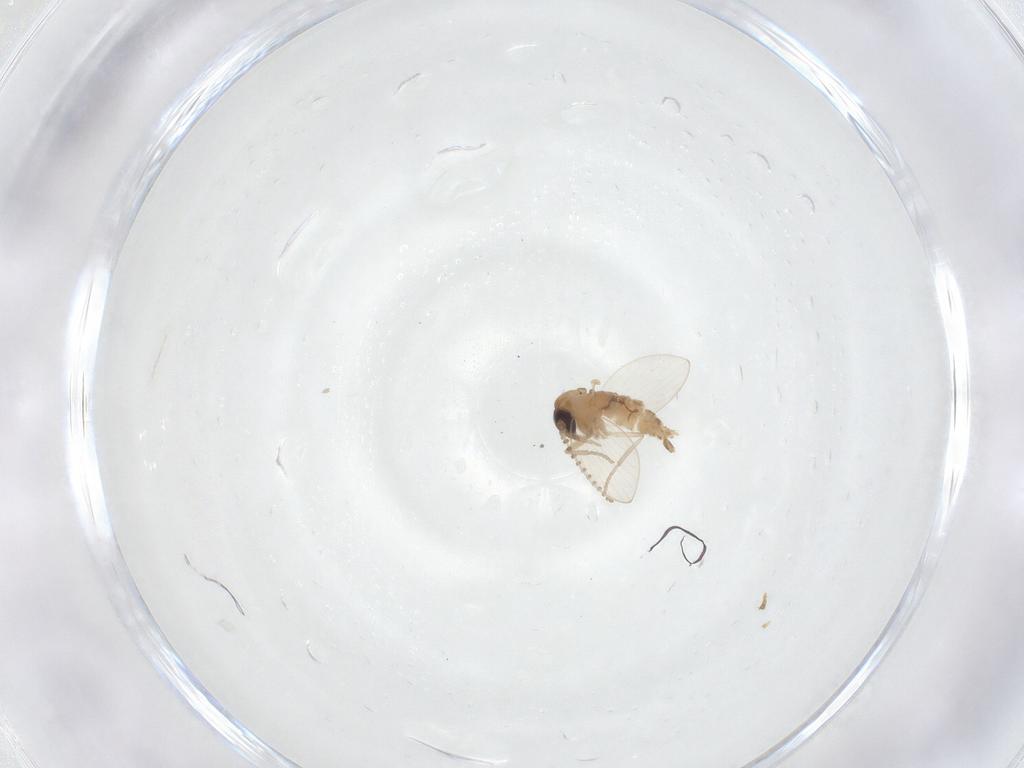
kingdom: Animalia
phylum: Arthropoda
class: Insecta
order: Diptera
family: Psychodidae
